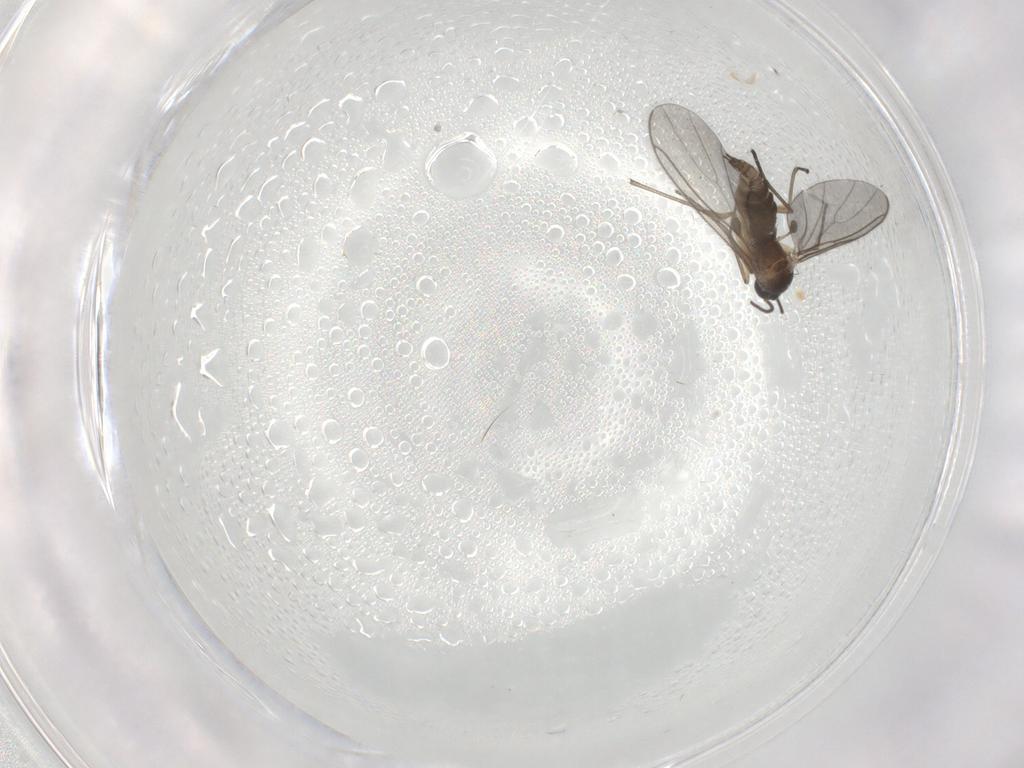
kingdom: Animalia
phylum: Arthropoda
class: Insecta
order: Diptera
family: Sciaridae
